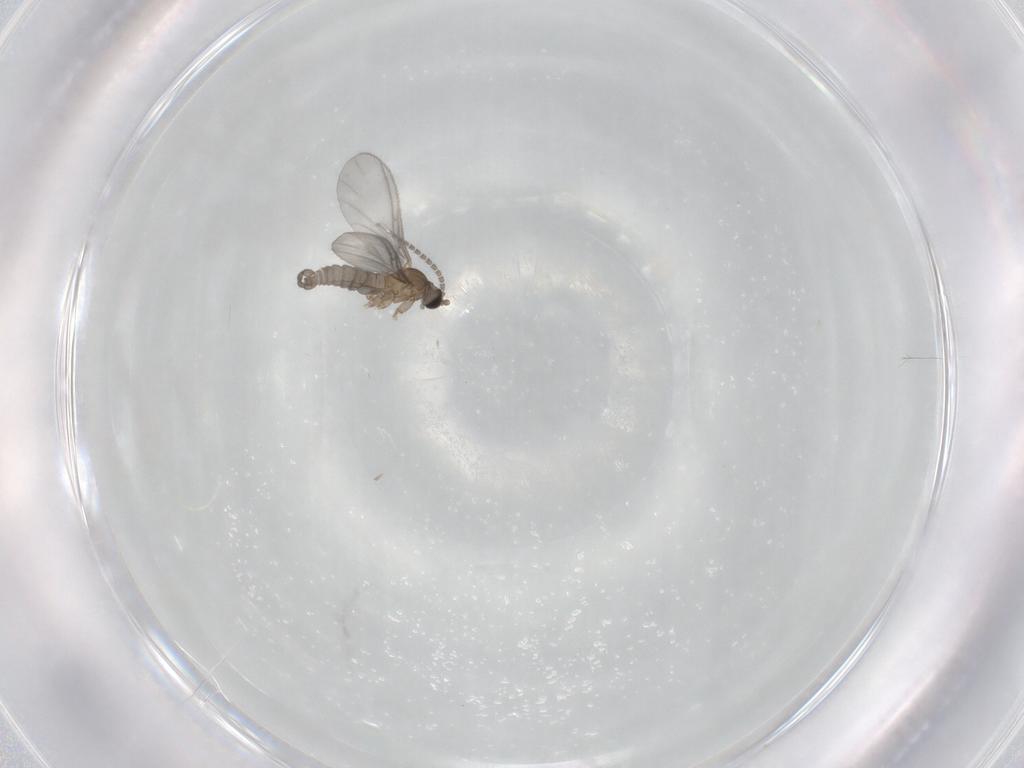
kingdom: Animalia
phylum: Arthropoda
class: Insecta
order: Diptera
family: Sciaridae
